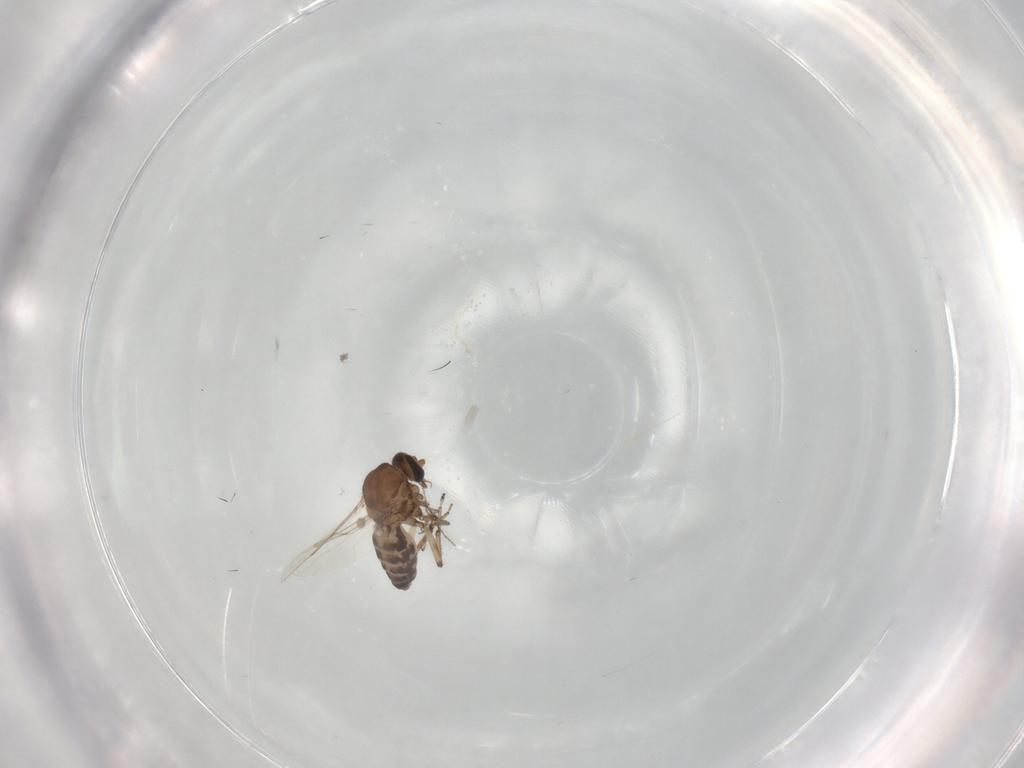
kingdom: Animalia
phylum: Arthropoda
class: Insecta
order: Diptera
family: Cecidomyiidae
